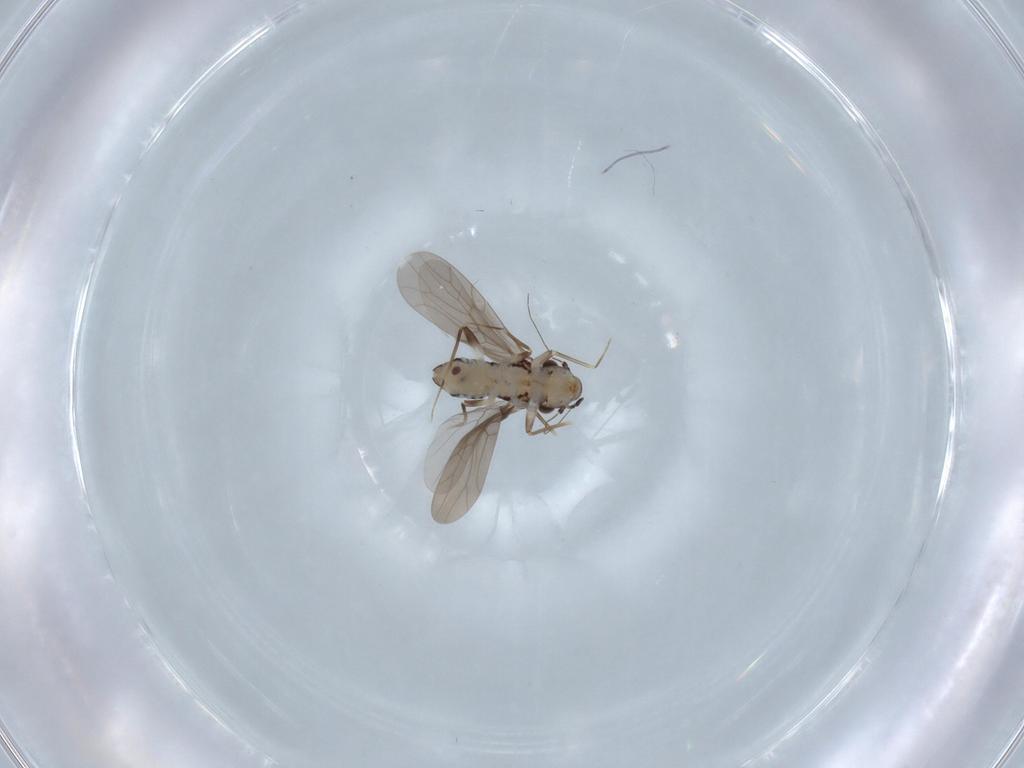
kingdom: Animalia
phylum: Arthropoda
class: Insecta
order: Psocodea
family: Lepidopsocidae
